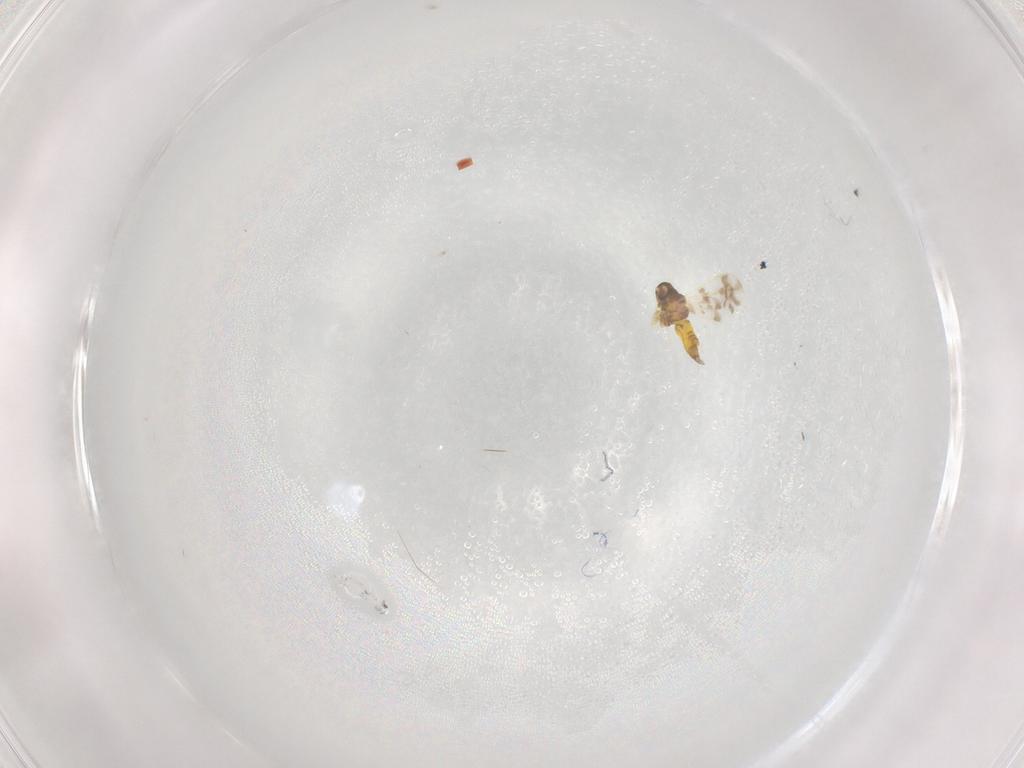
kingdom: Animalia
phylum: Arthropoda
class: Insecta
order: Hemiptera
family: Aleyrodidae
